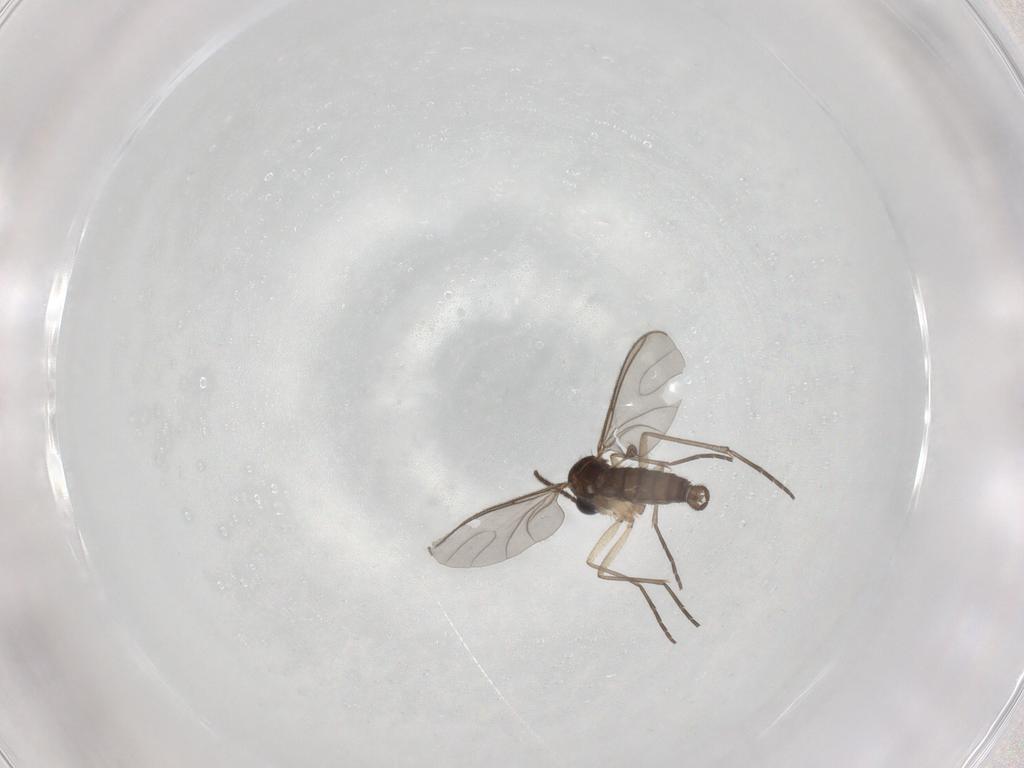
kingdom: Animalia
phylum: Arthropoda
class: Insecta
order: Diptera
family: Sciaridae
